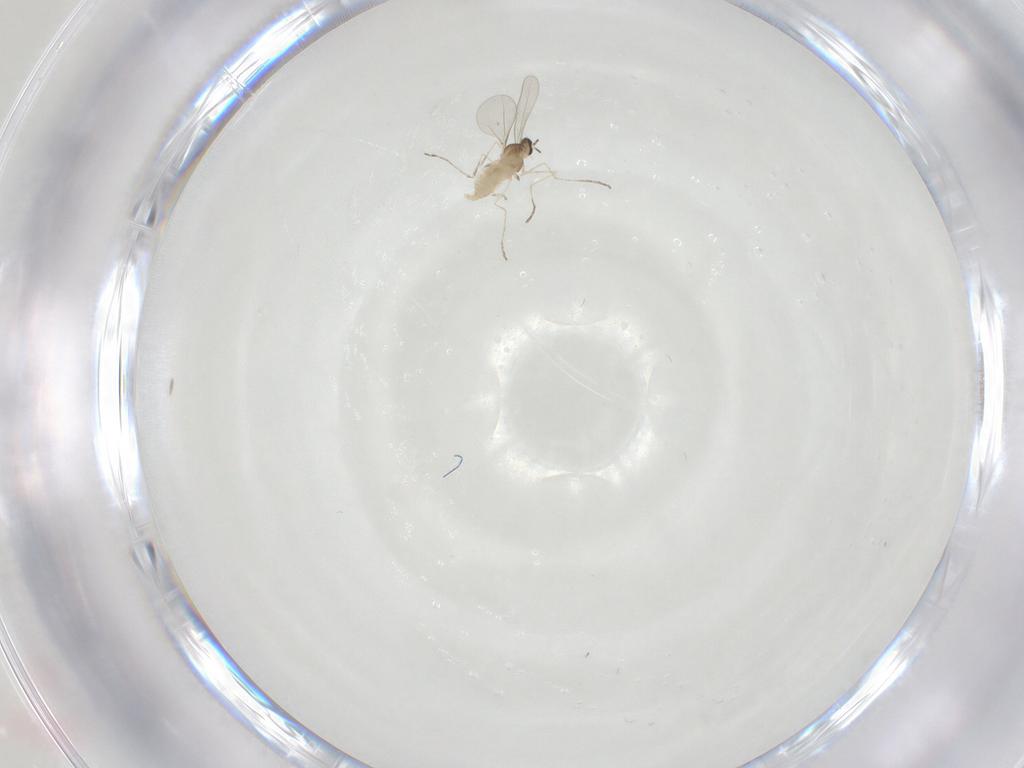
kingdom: Animalia
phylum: Arthropoda
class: Insecta
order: Diptera
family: Cecidomyiidae
